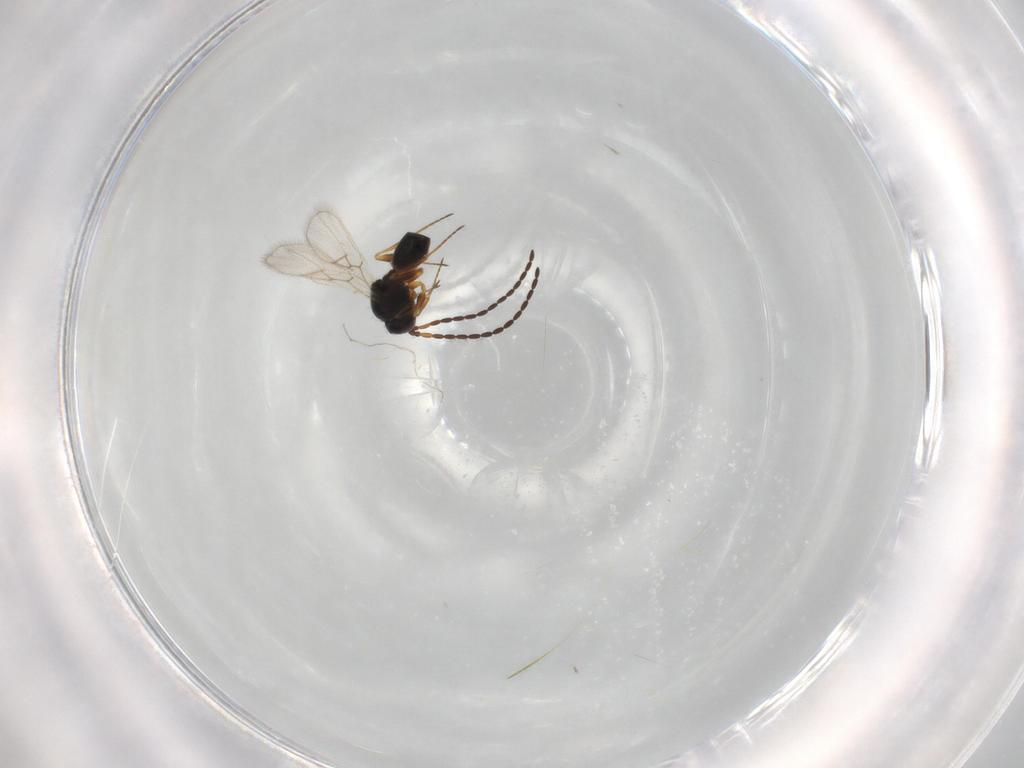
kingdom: Animalia
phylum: Arthropoda
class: Insecta
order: Hymenoptera
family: Figitidae
